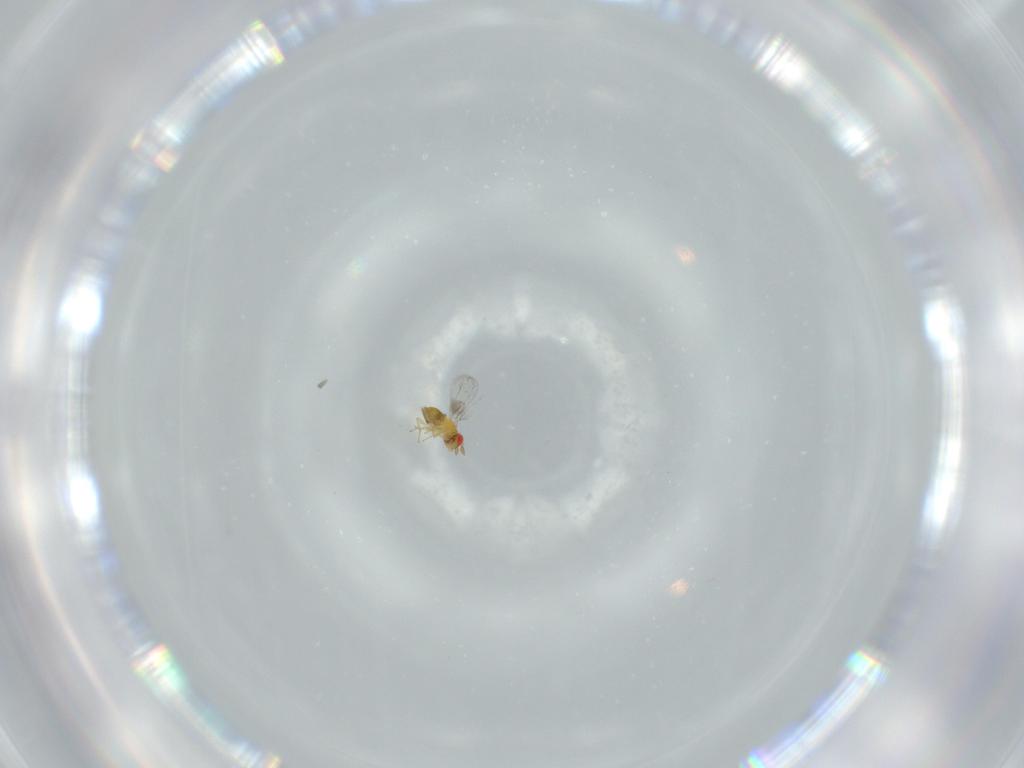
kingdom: Animalia
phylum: Arthropoda
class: Insecta
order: Hymenoptera
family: Trichogrammatidae
